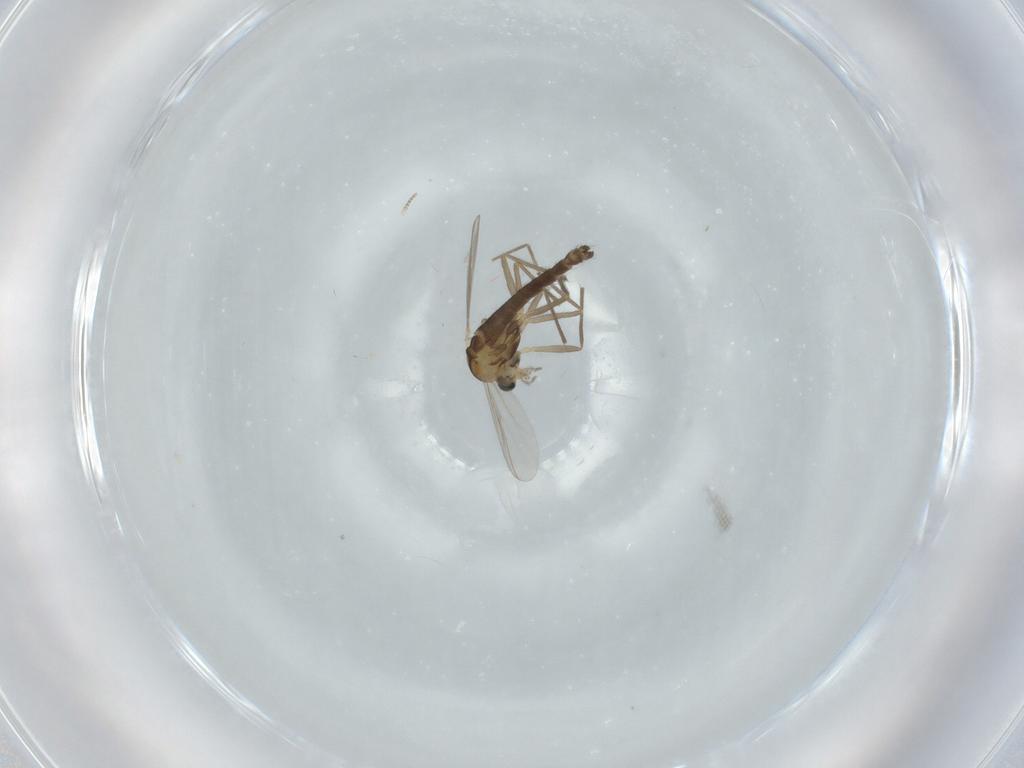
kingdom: Animalia
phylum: Arthropoda
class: Insecta
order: Diptera
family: Chironomidae
